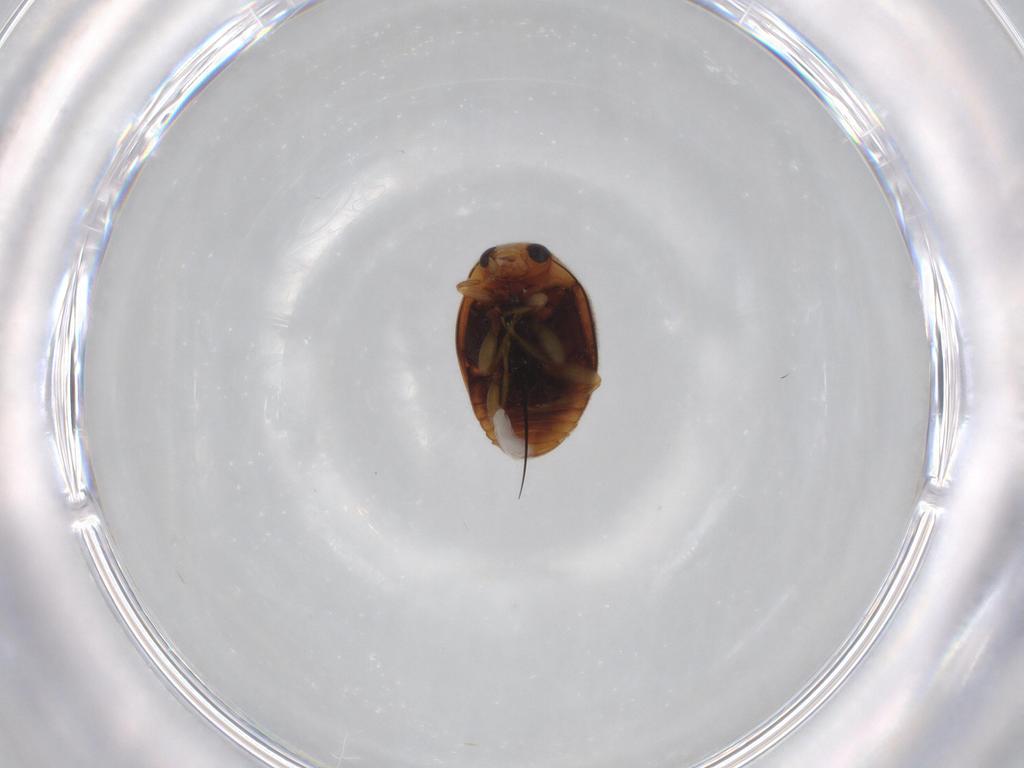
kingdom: Animalia
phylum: Arthropoda
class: Insecta
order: Coleoptera
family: Coccinellidae
